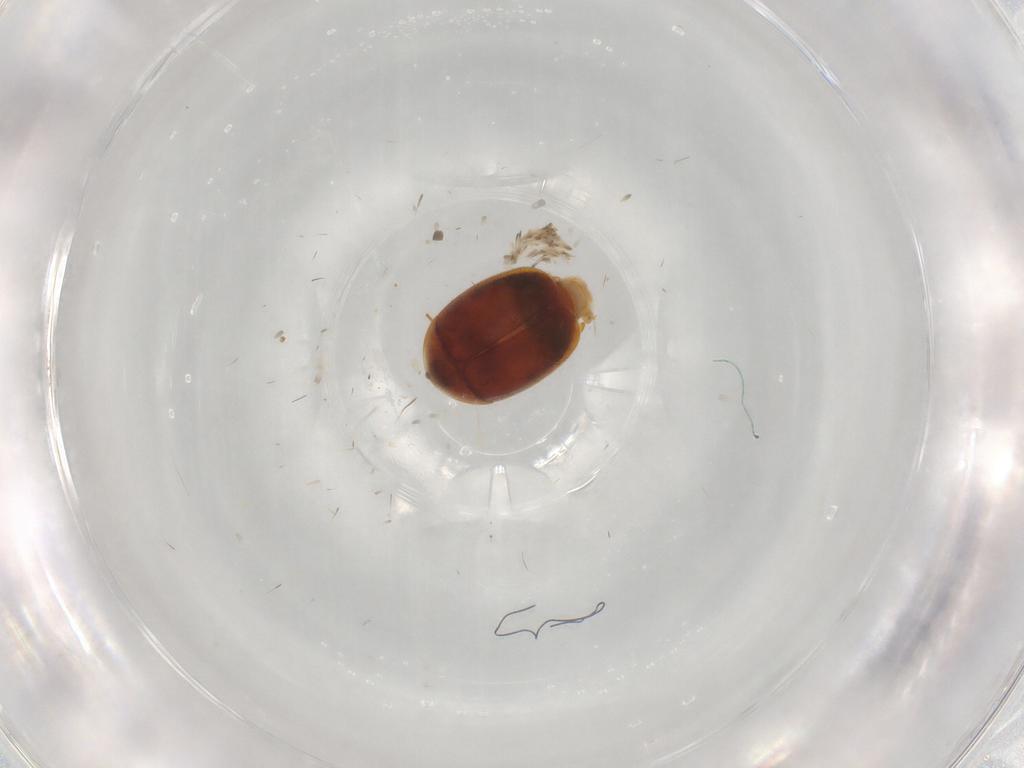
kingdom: Animalia
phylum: Arthropoda
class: Insecta
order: Coleoptera
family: Corylophidae
